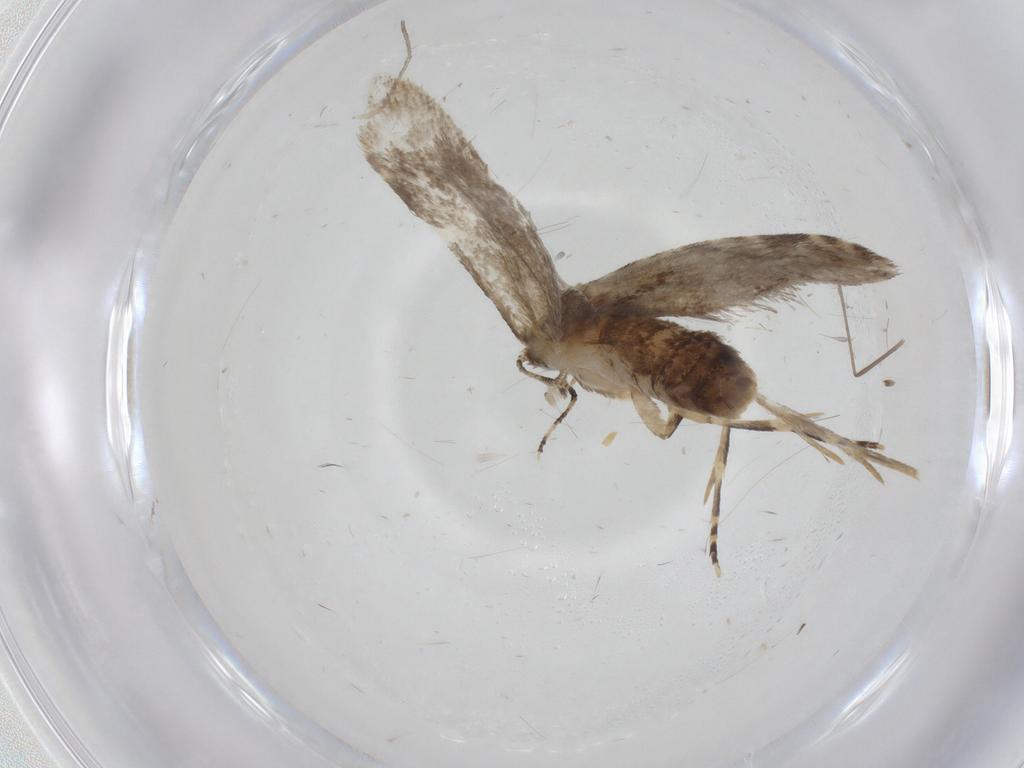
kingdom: Animalia
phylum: Arthropoda
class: Insecta
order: Lepidoptera
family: Tineidae
